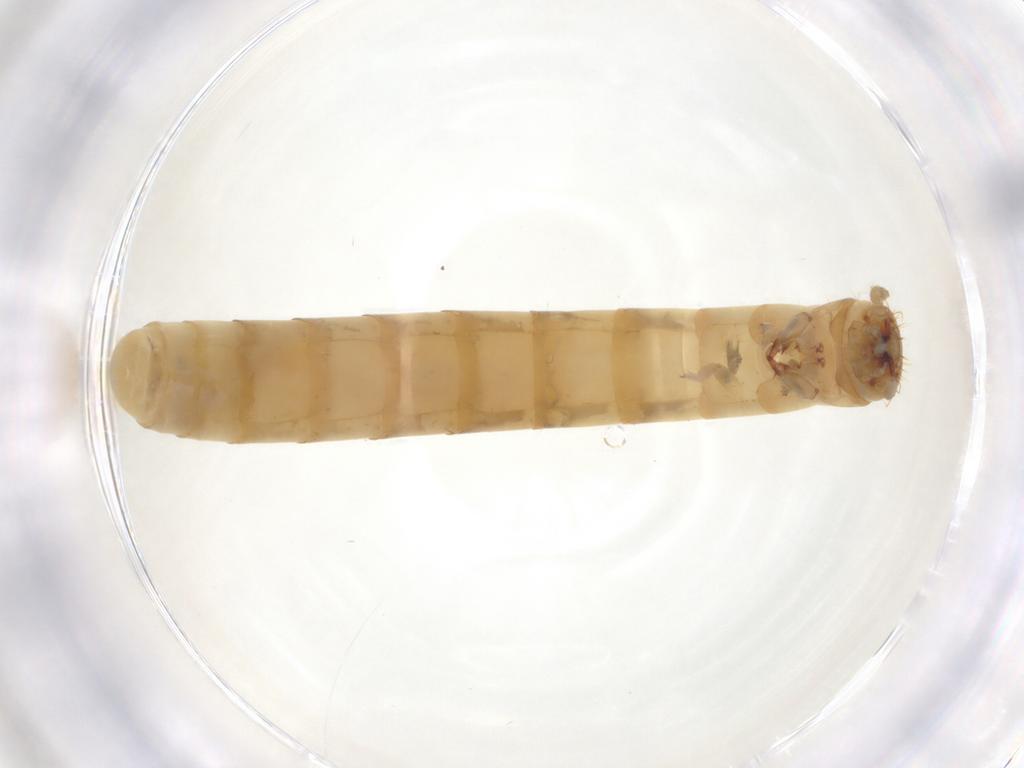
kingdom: Animalia
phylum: Arthropoda
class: Insecta
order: Coleoptera
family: Tenebrionidae
